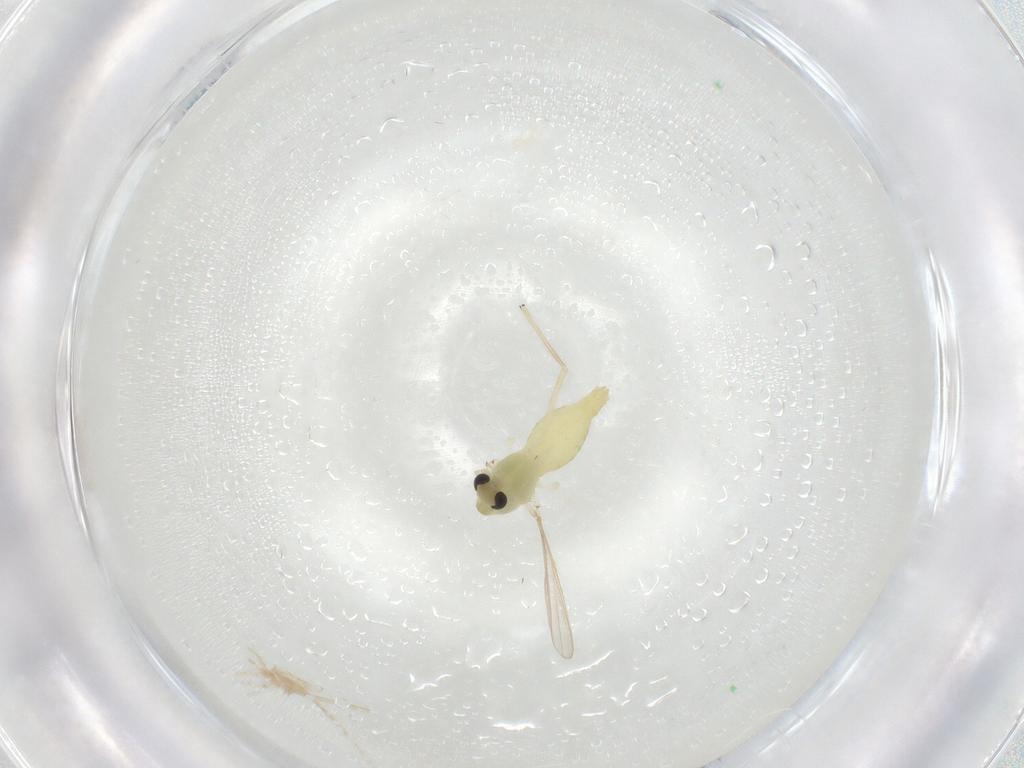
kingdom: Animalia
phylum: Arthropoda
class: Insecta
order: Diptera
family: Chironomidae
